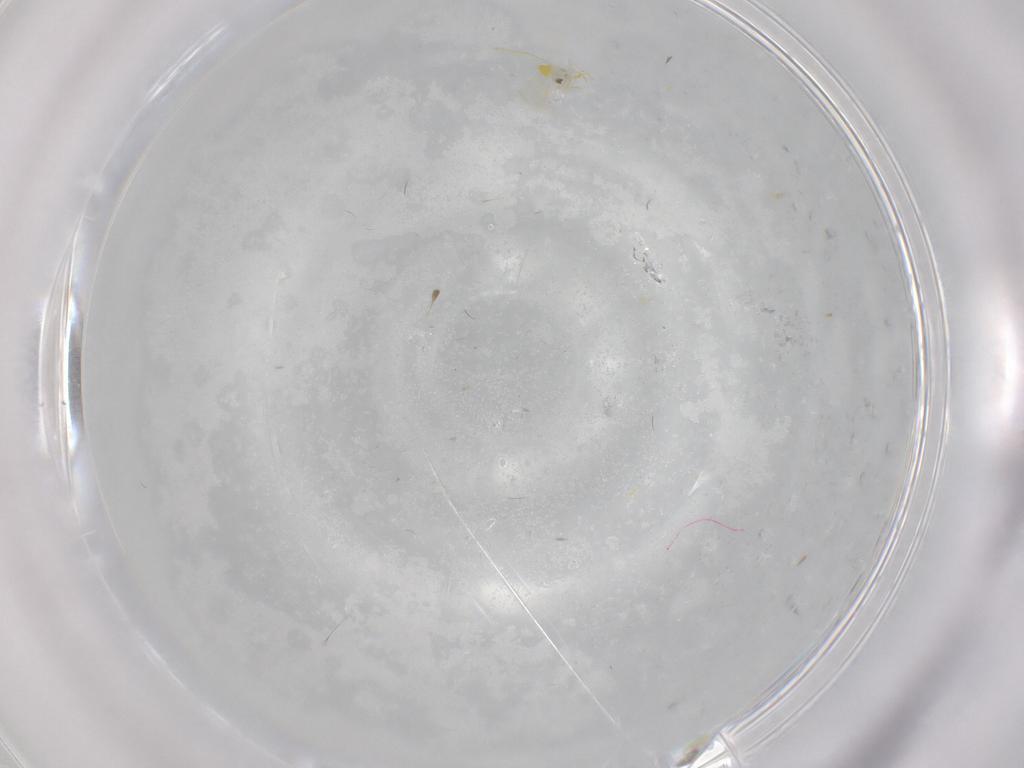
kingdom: Animalia
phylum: Arthropoda
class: Insecta
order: Hemiptera
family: Aleyrodidae
